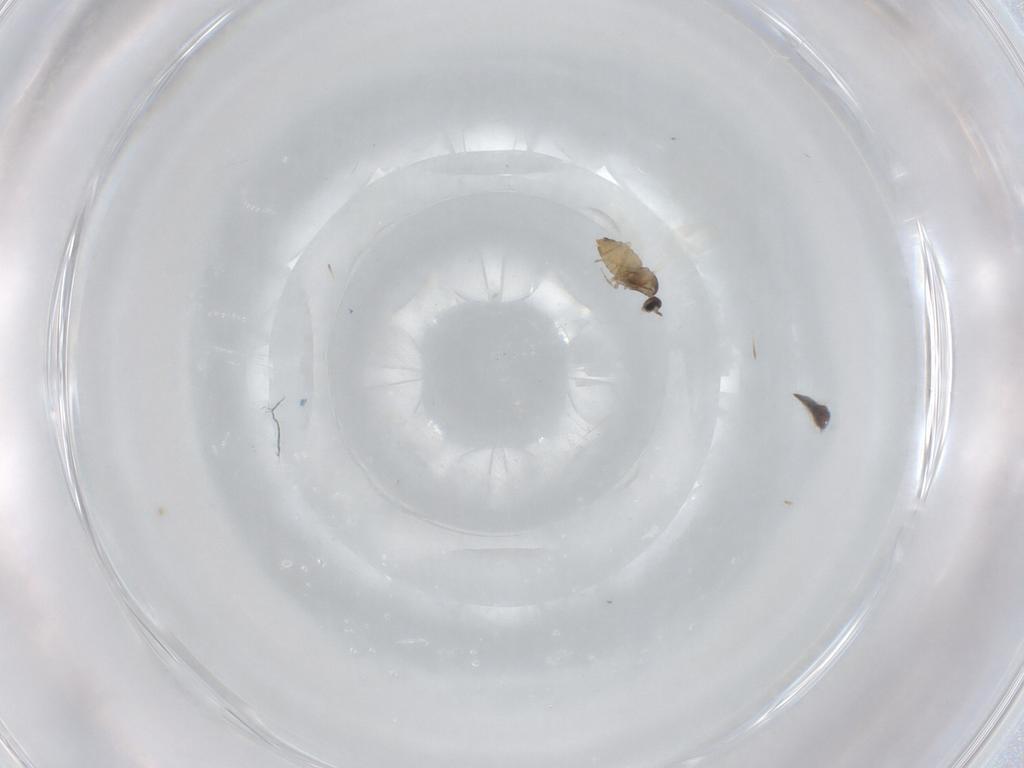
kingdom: Animalia
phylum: Arthropoda
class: Insecta
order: Diptera
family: Cecidomyiidae
